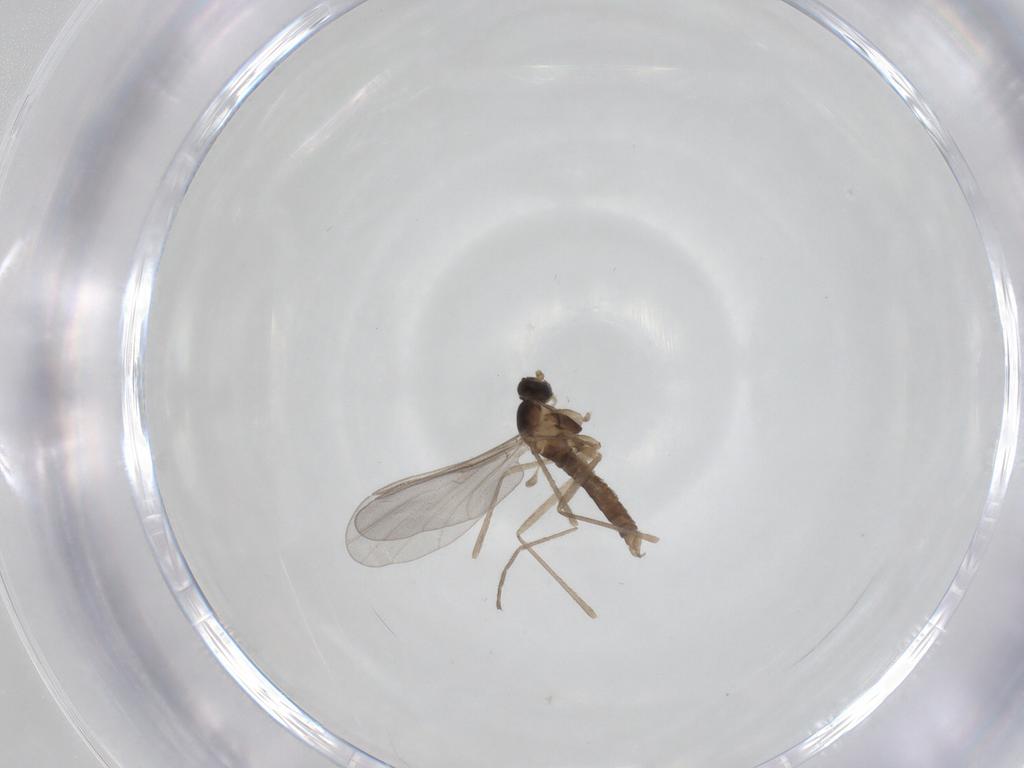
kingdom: Animalia
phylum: Arthropoda
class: Insecta
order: Diptera
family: Cecidomyiidae
